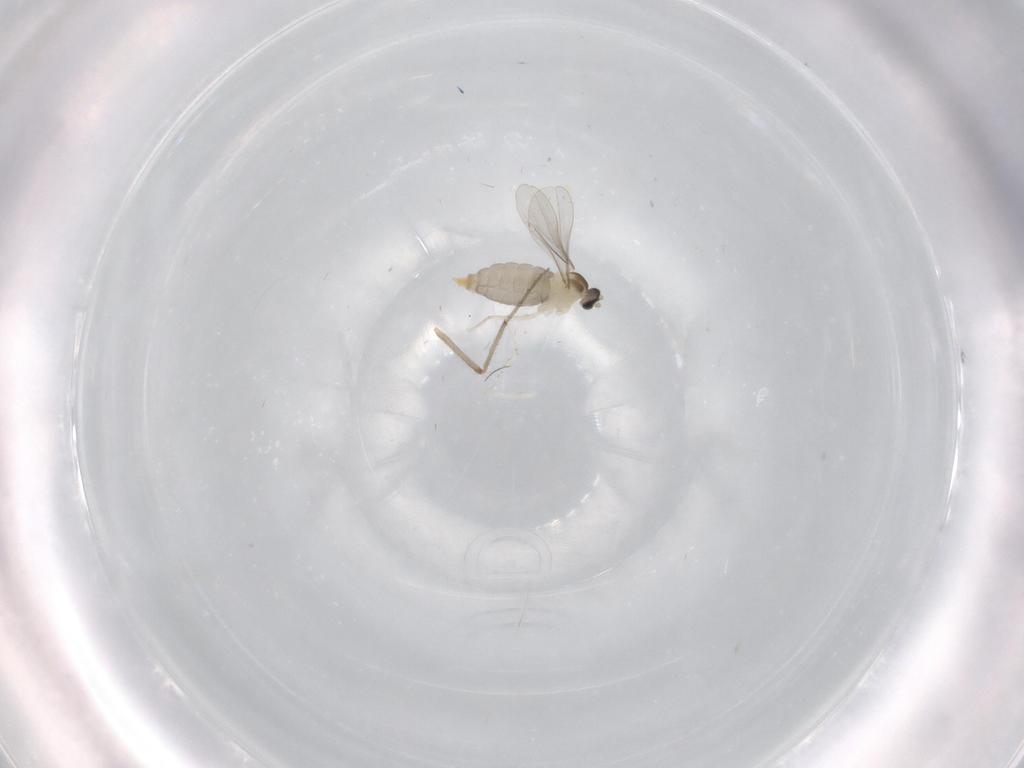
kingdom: Animalia
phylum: Arthropoda
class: Insecta
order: Diptera
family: Chironomidae
